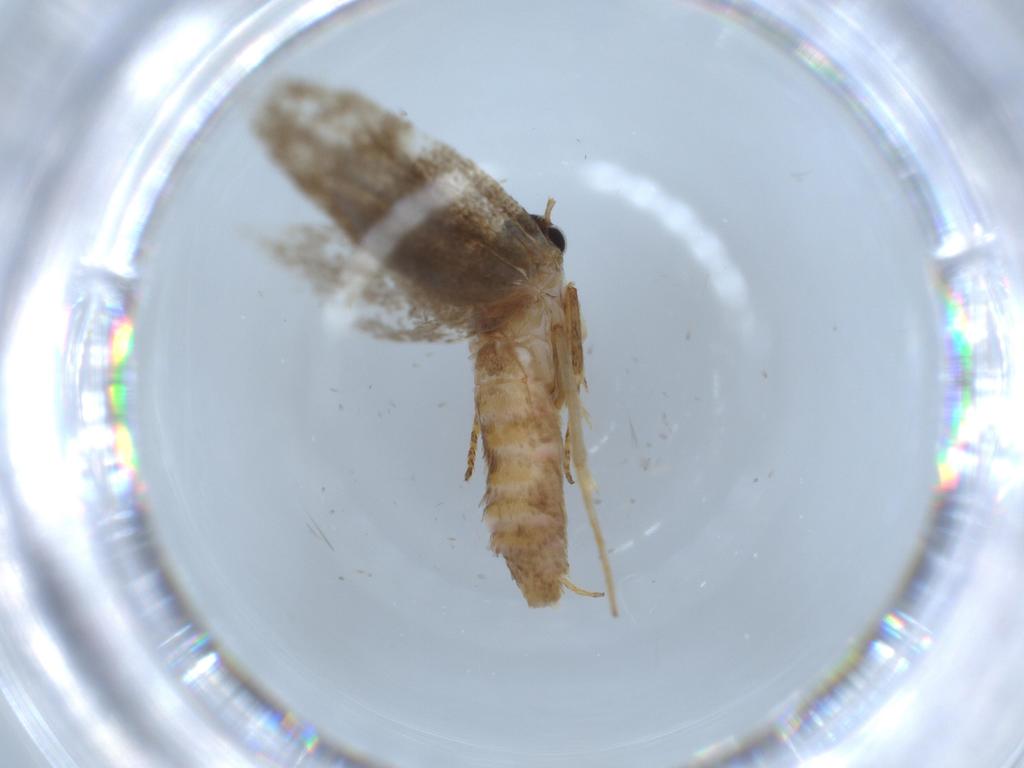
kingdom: Animalia
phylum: Arthropoda
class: Insecta
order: Lepidoptera
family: Oecophoridae
